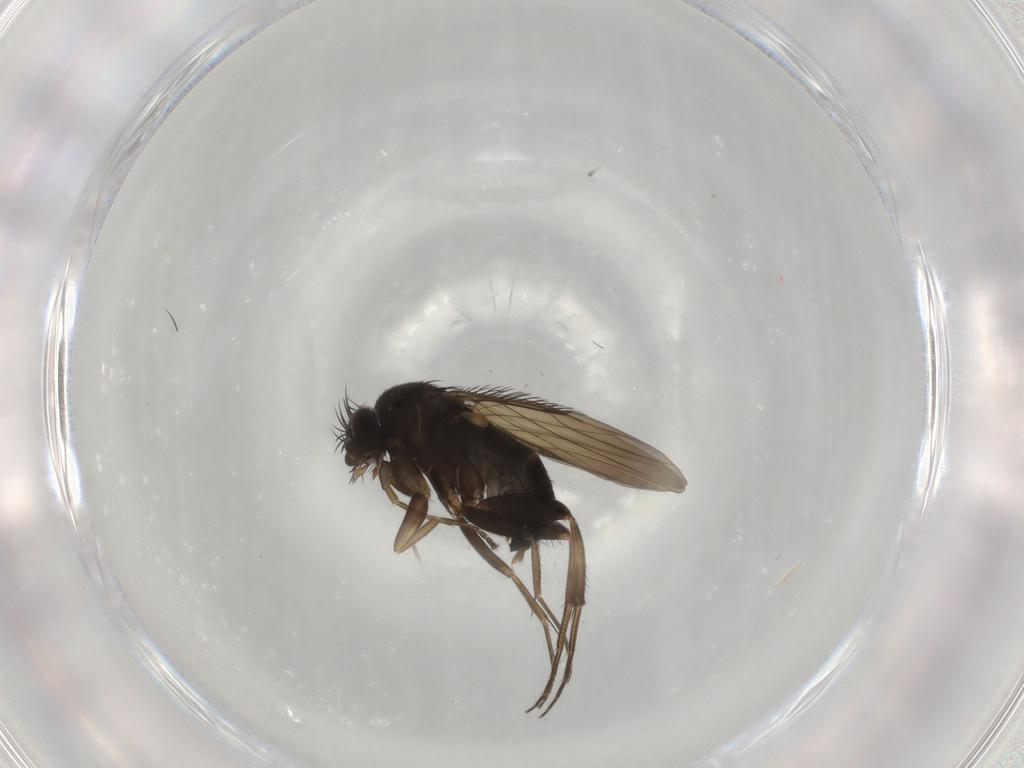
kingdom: Animalia
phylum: Arthropoda
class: Insecta
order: Diptera
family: Phoridae
